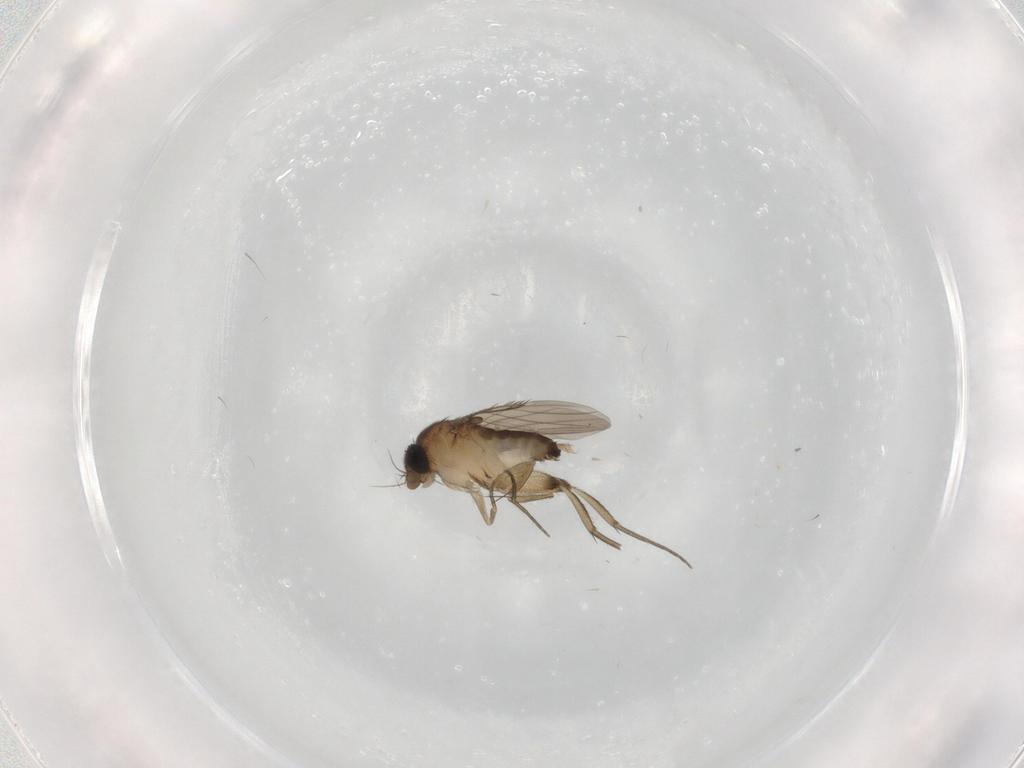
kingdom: Animalia
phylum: Arthropoda
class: Insecta
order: Diptera
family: Phoridae
